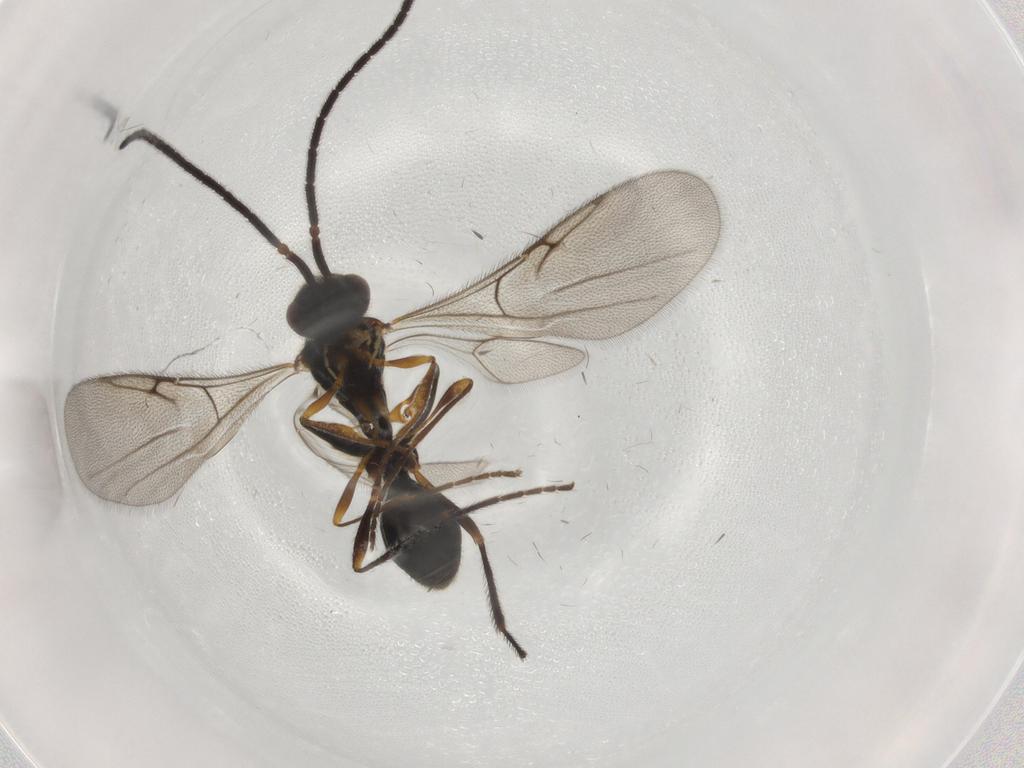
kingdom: Animalia
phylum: Arthropoda
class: Insecta
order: Hymenoptera
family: Diapriidae
